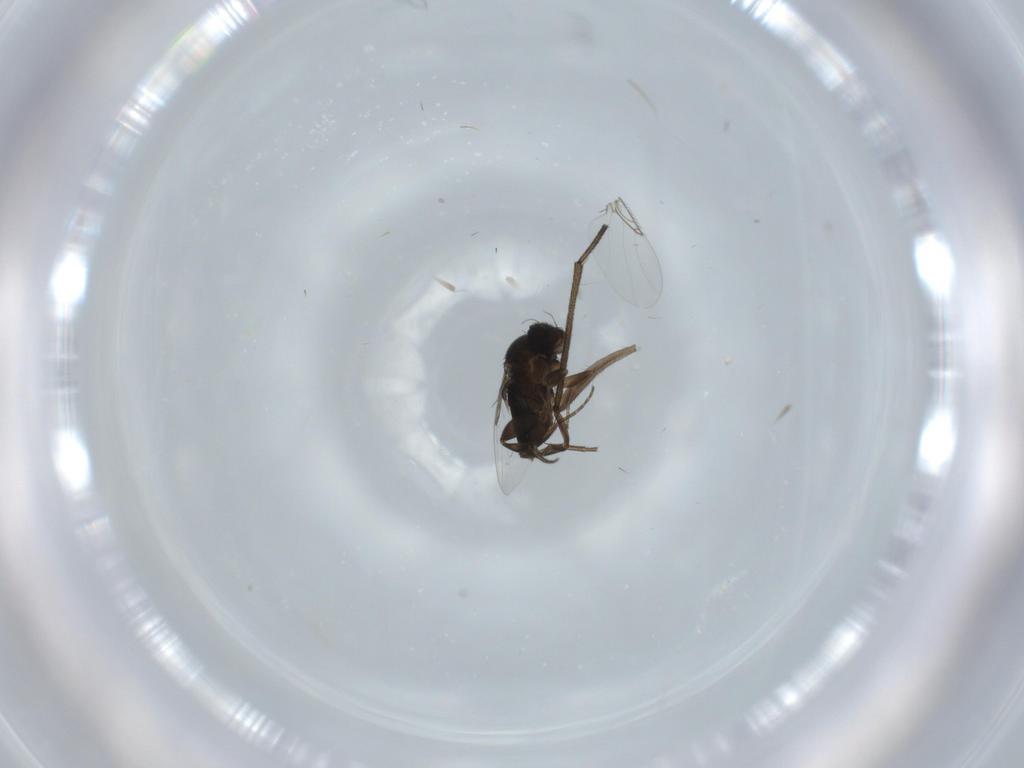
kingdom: Animalia
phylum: Arthropoda
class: Insecta
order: Diptera
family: Phoridae
